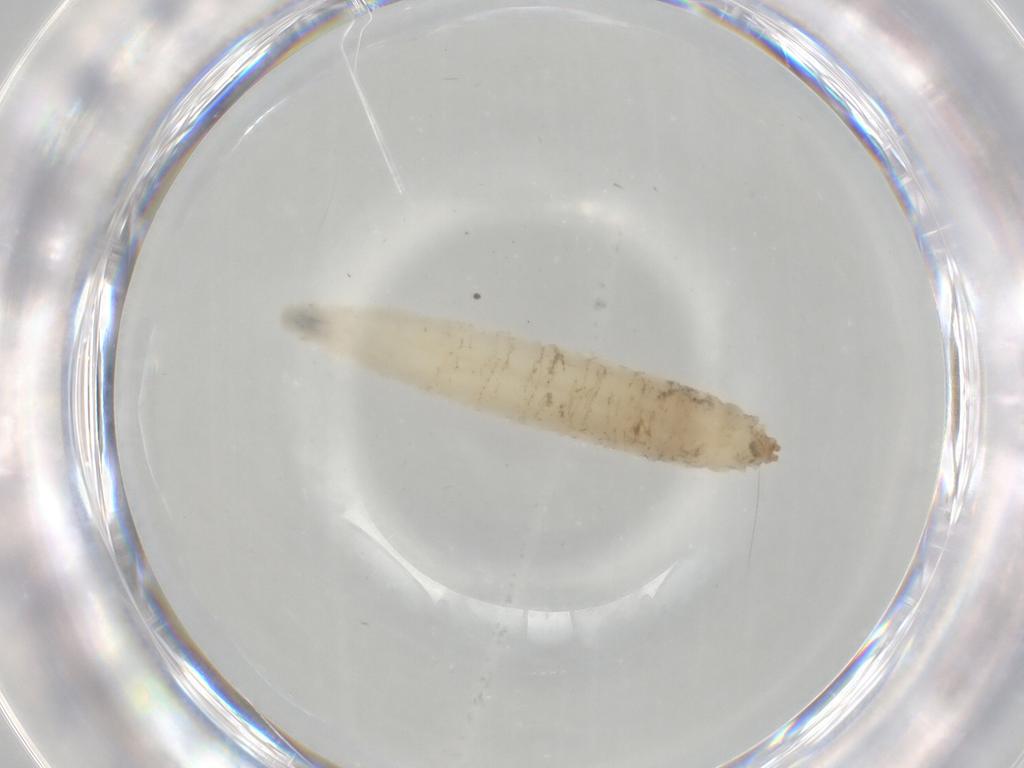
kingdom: Animalia
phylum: Arthropoda
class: Insecta
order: Diptera
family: Drosophilidae
